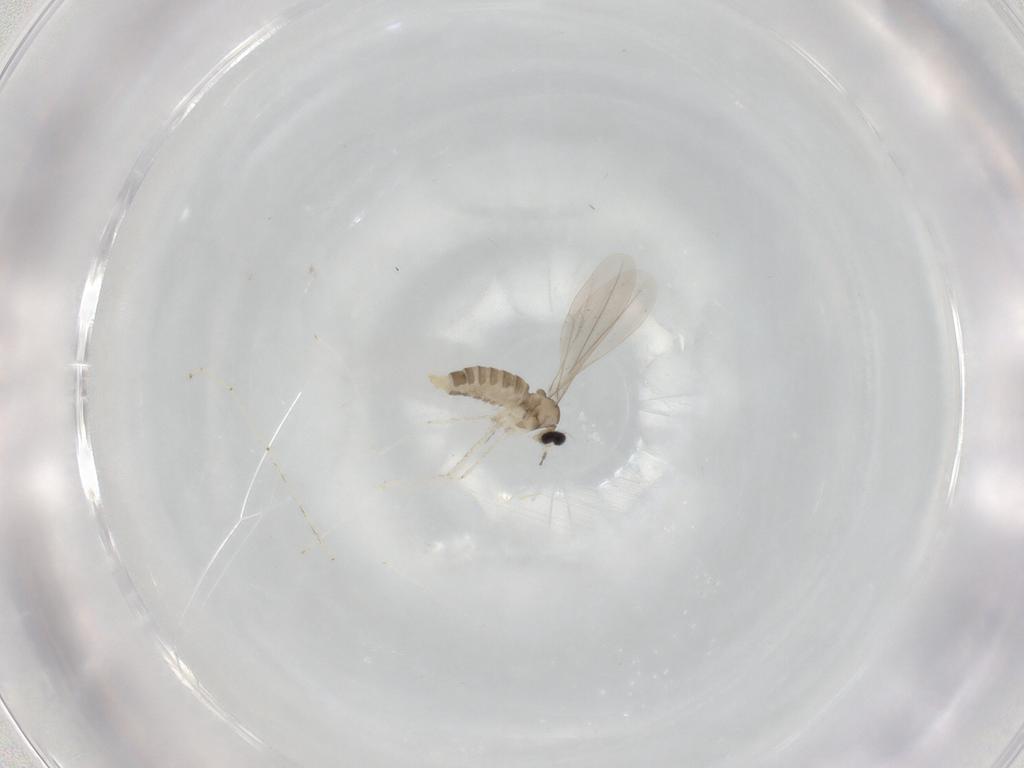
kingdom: Animalia
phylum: Arthropoda
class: Insecta
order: Diptera
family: Cecidomyiidae
